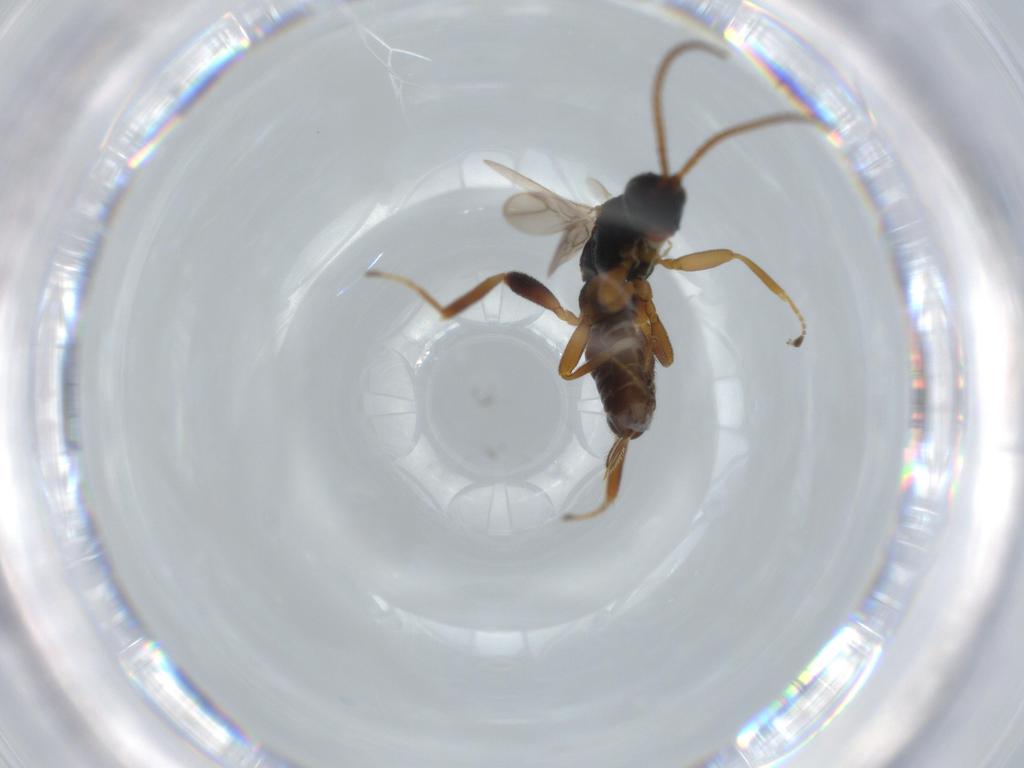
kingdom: Animalia
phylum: Arthropoda
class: Insecta
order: Hymenoptera
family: Braconidae
